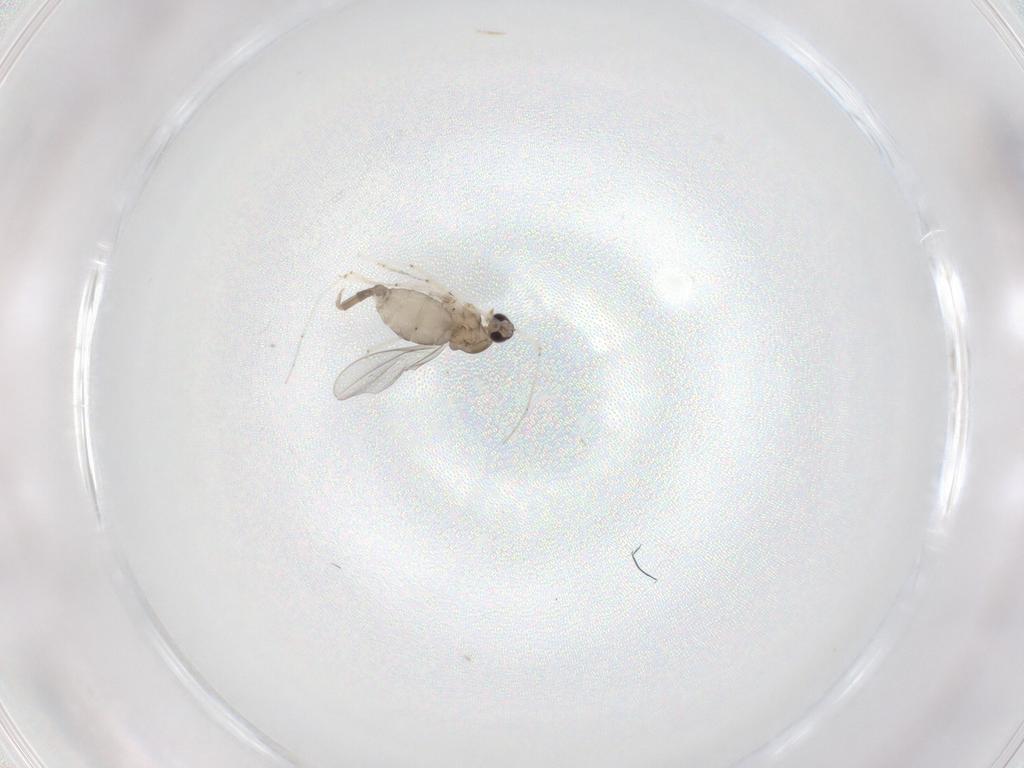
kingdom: Animalia
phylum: Arthropoda
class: Insecta
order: Diptera
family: Cecidomyiidae
